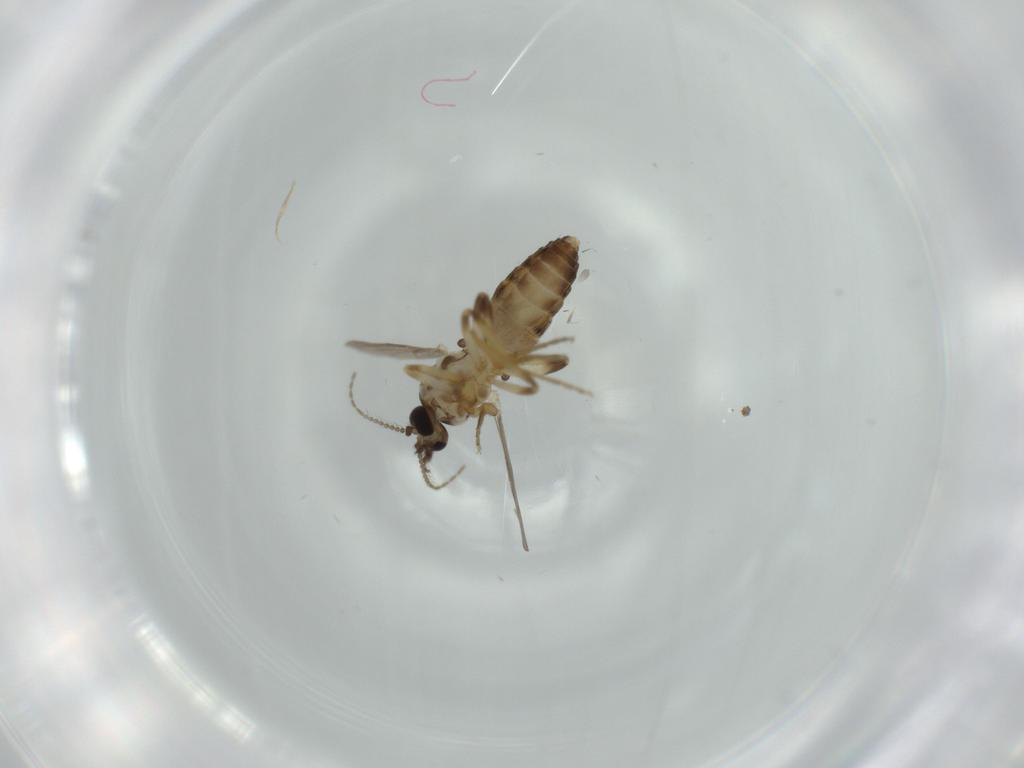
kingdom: Animalia
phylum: Arthropoda
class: Insecta
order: Diptera
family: Ceratopogonidae
